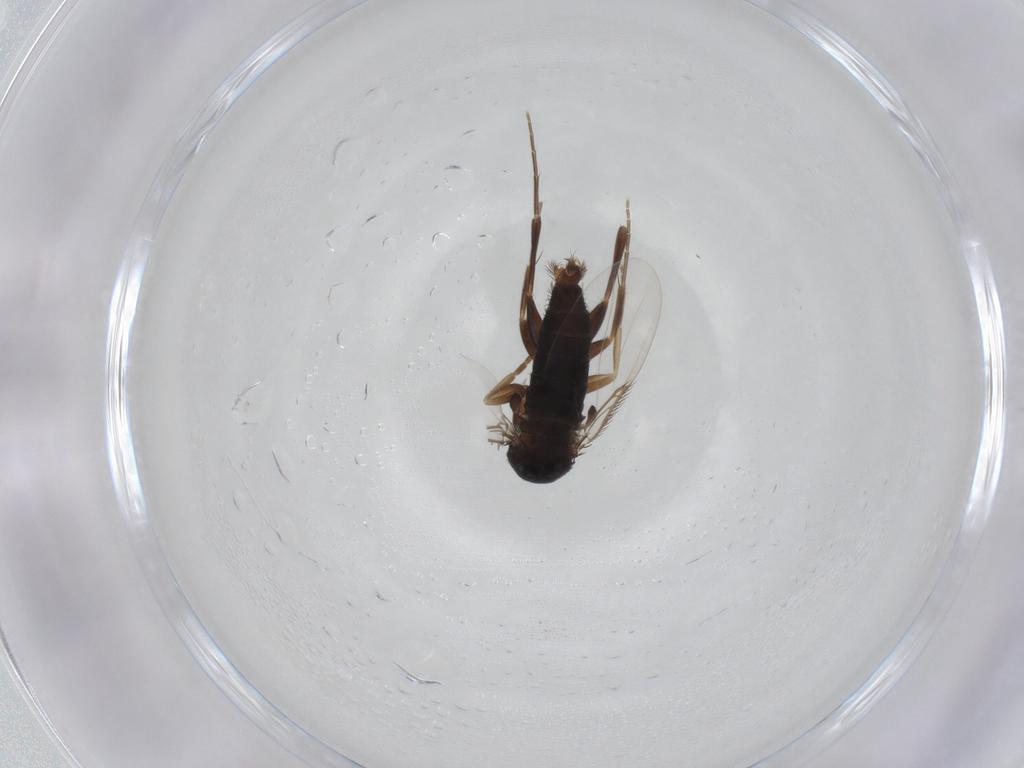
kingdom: Animalia
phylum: Arthropoda
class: Insecta
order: Diptera
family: Phoridae
